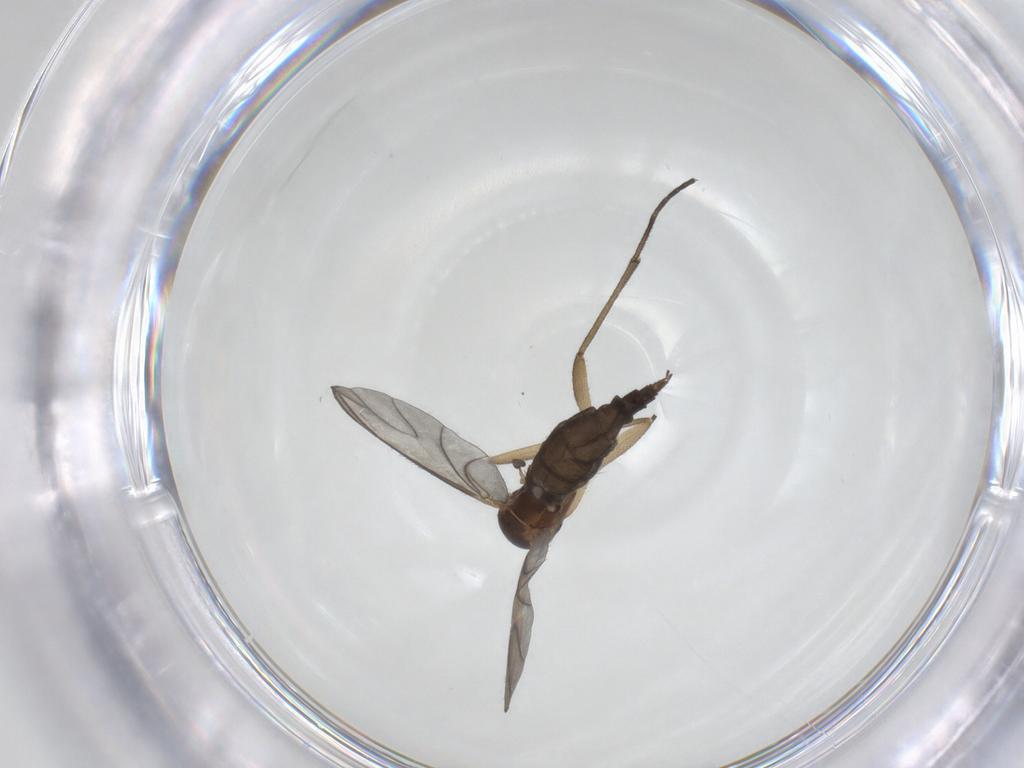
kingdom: Animalia
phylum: Arthropoda
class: Insecta
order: Diptera
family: Sciaridae
